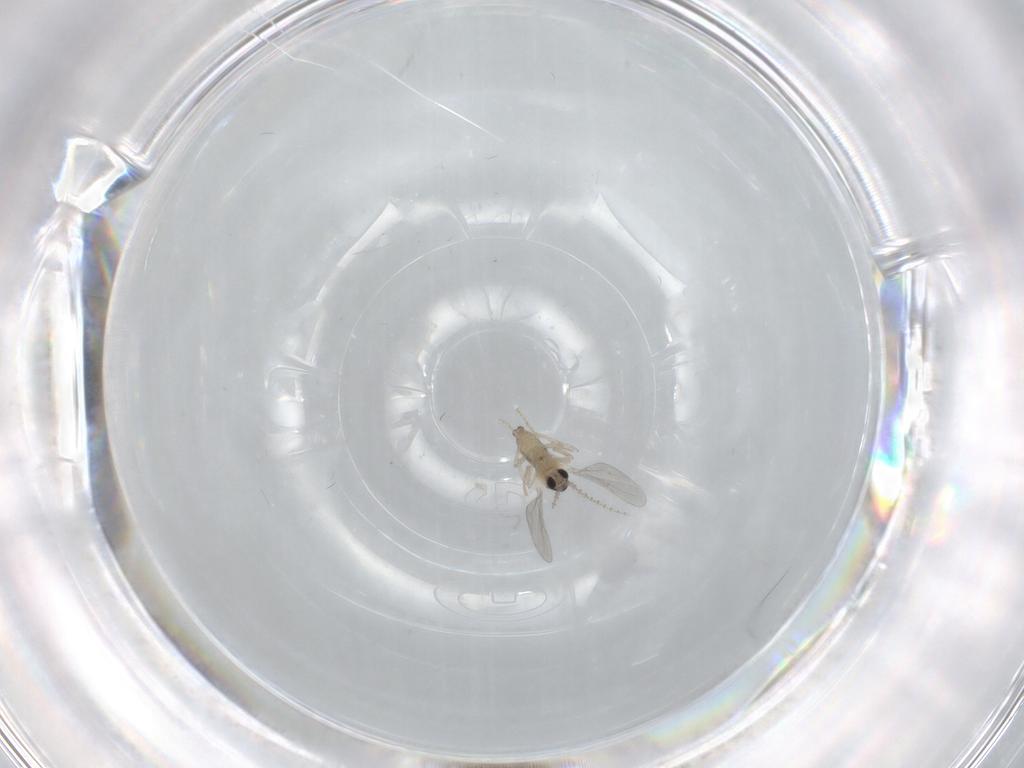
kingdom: Animalia
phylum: Arthropoda
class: Insecta
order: Diptera
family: Cecidomyiidae
